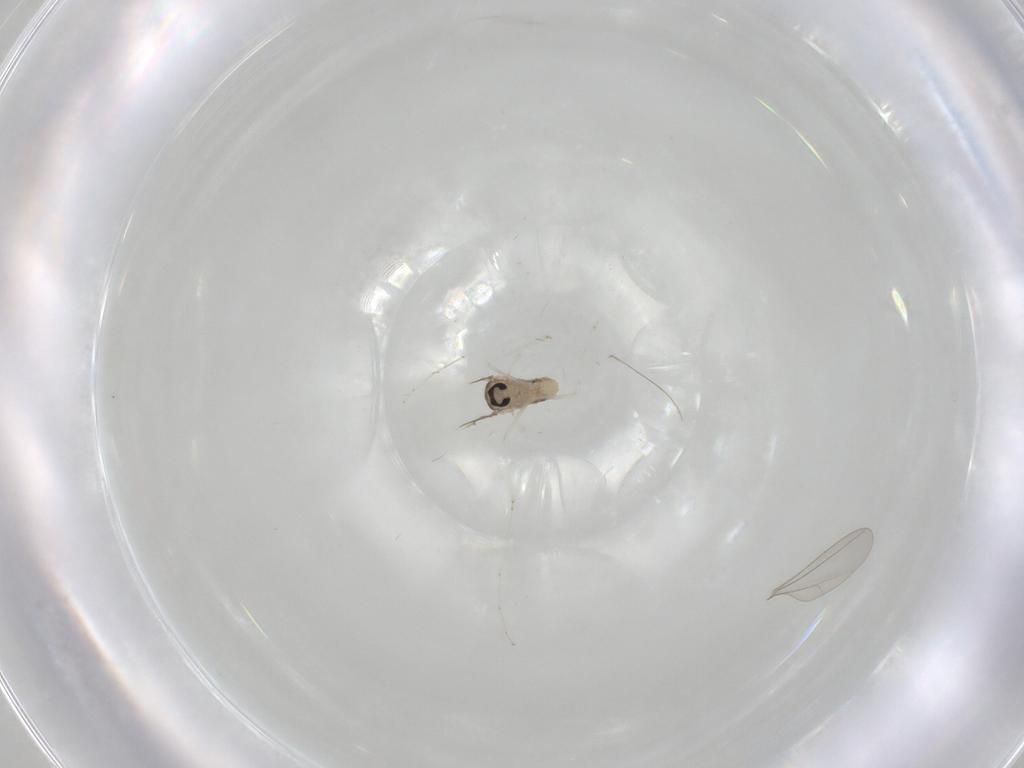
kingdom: Animalia
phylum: Arthropoda
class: Insecta
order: Diptera
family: Cecidomyiidae
